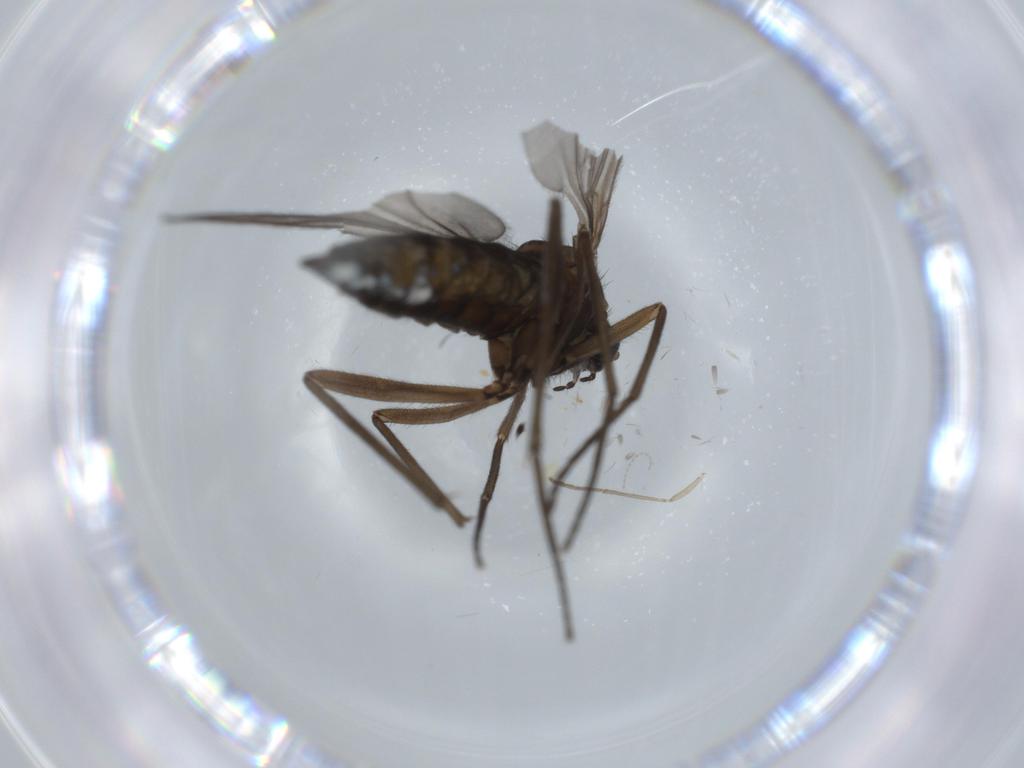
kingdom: Animalia
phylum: Arthropoda
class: Insecta
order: Diptera
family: Sciaridae
